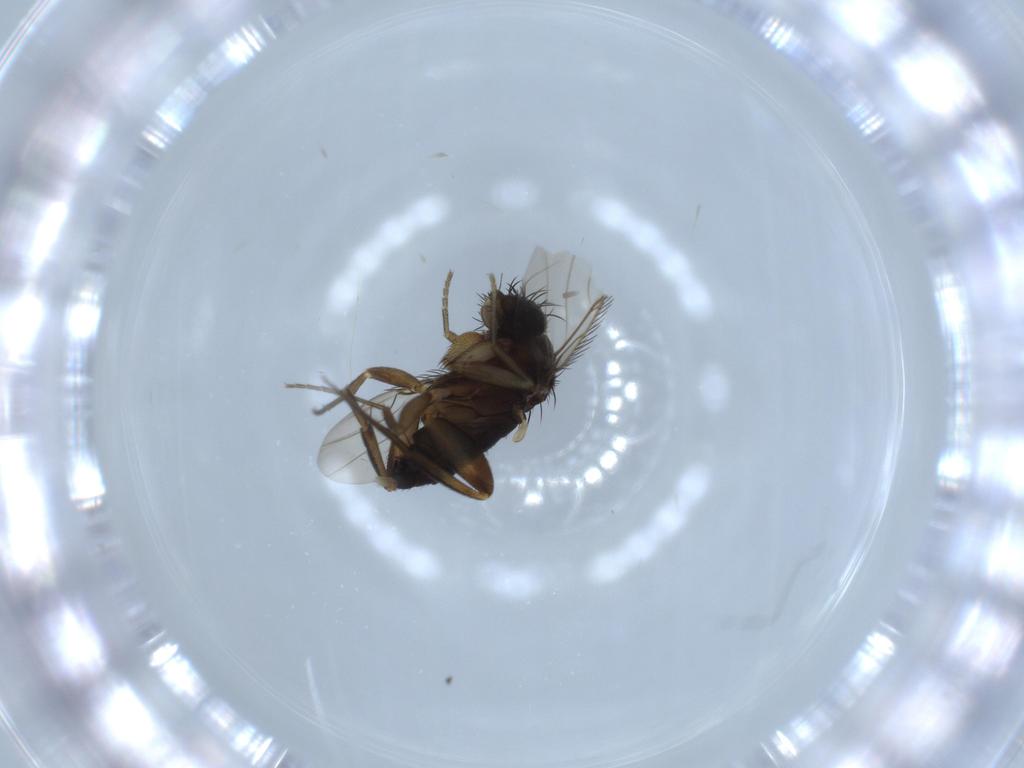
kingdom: Animalia
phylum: Arthropoda
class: Insecta
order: Diptera
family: Phoridae
